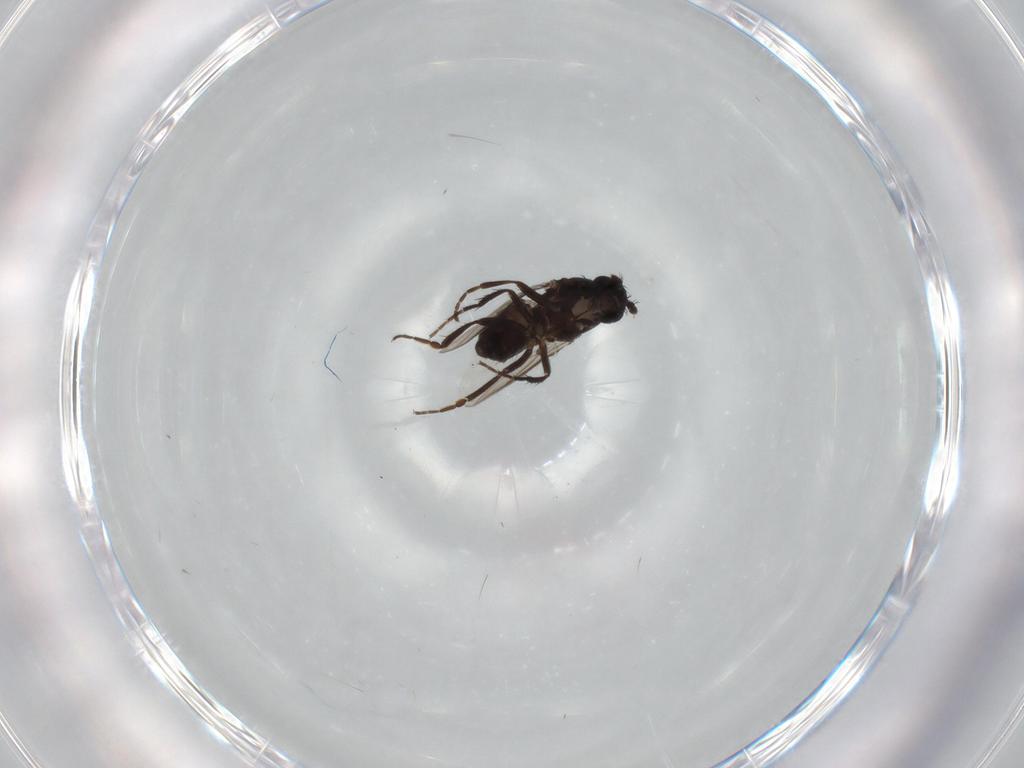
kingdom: Animalia
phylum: Arthropoda
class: Insecta
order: Diptera
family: Sphaeroceridae
